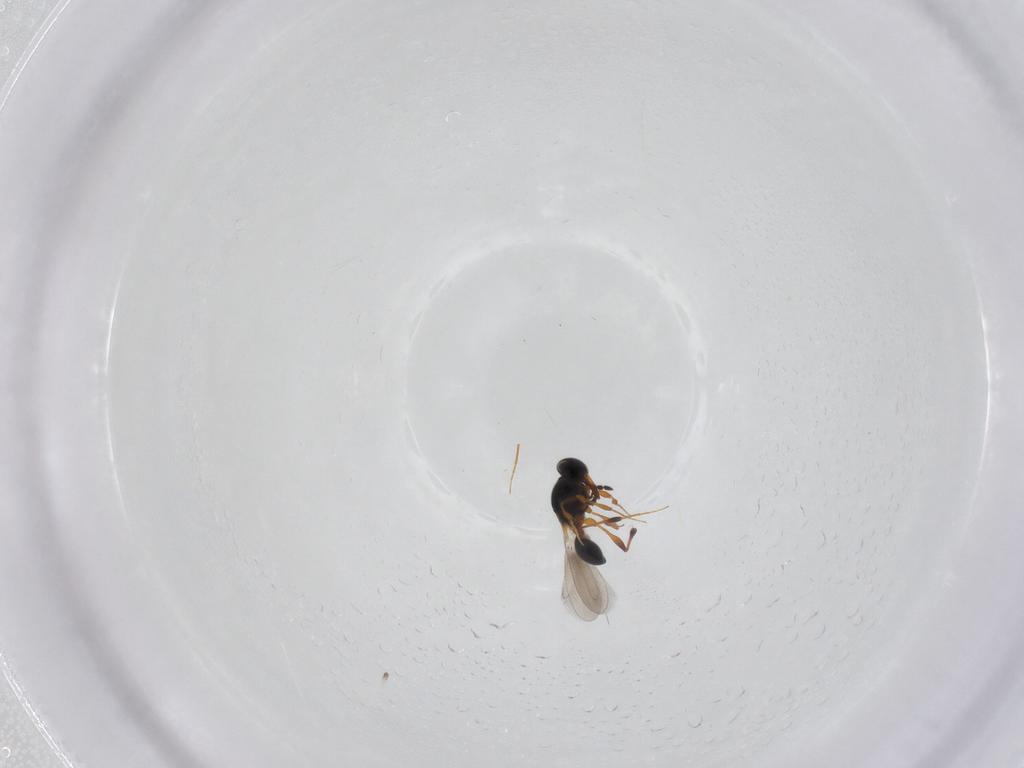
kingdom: Animalia
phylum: Arthropoda
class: Insecta
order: Hymenoptera
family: Platygastridae
